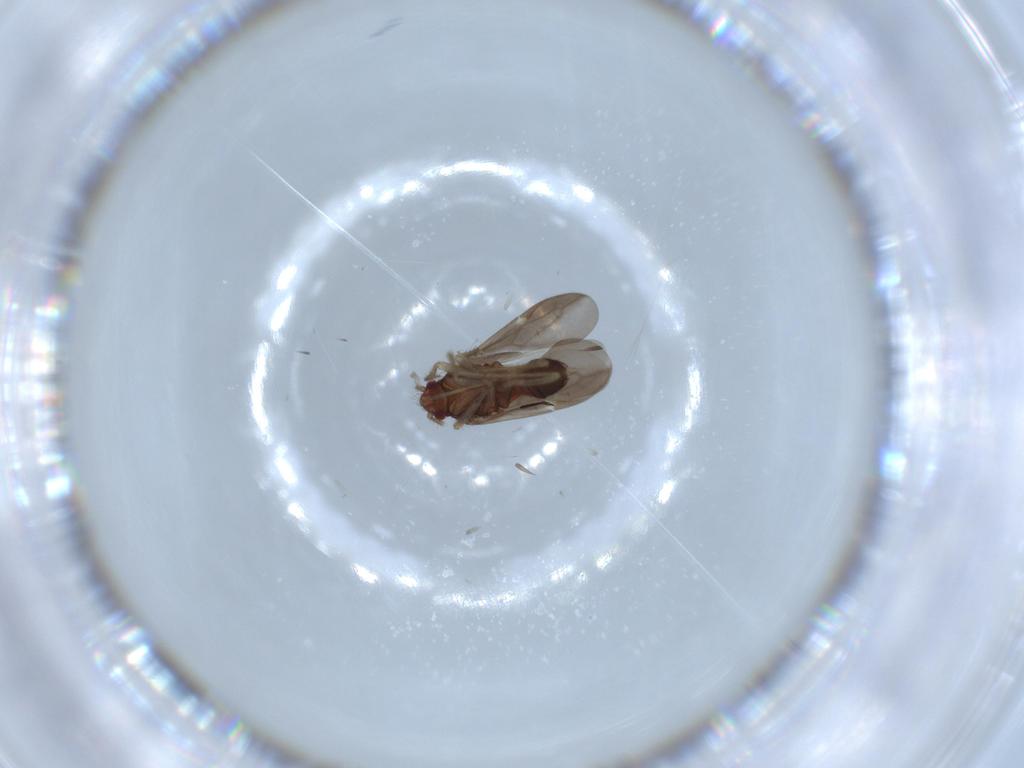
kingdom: Animalia
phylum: Arthropoda
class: Insecta
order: Hemiptera
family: Ceratocombidae
